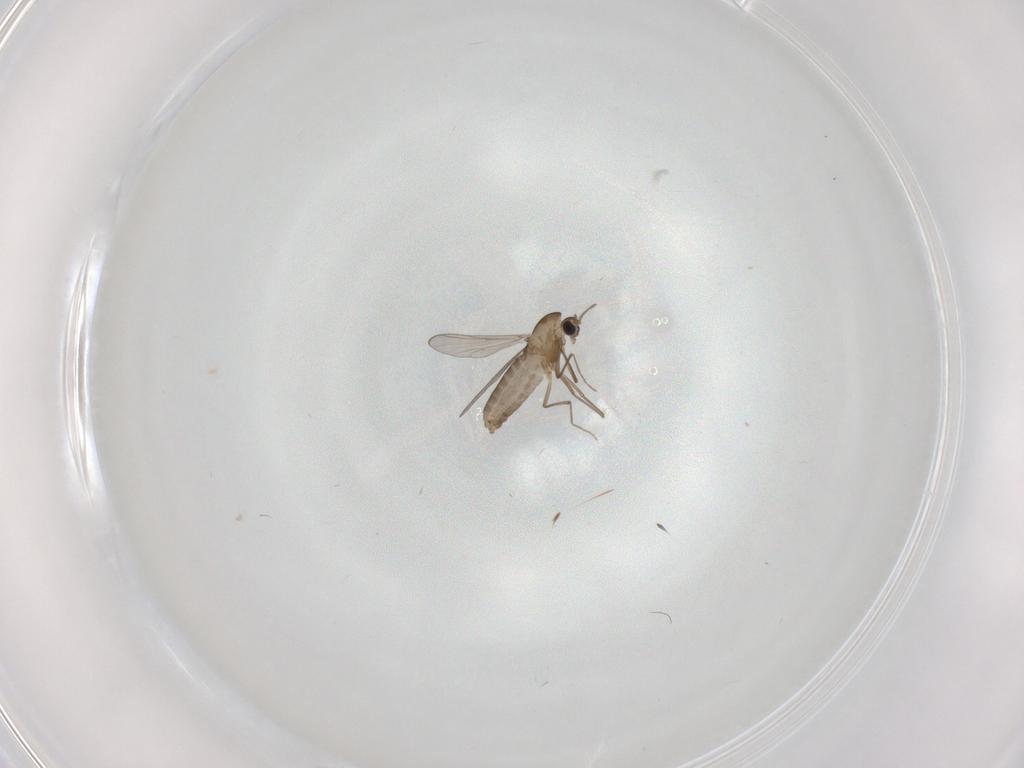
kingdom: Animalia
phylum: Arthropoda
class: Insecta
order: Diptera
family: Chironomidae
